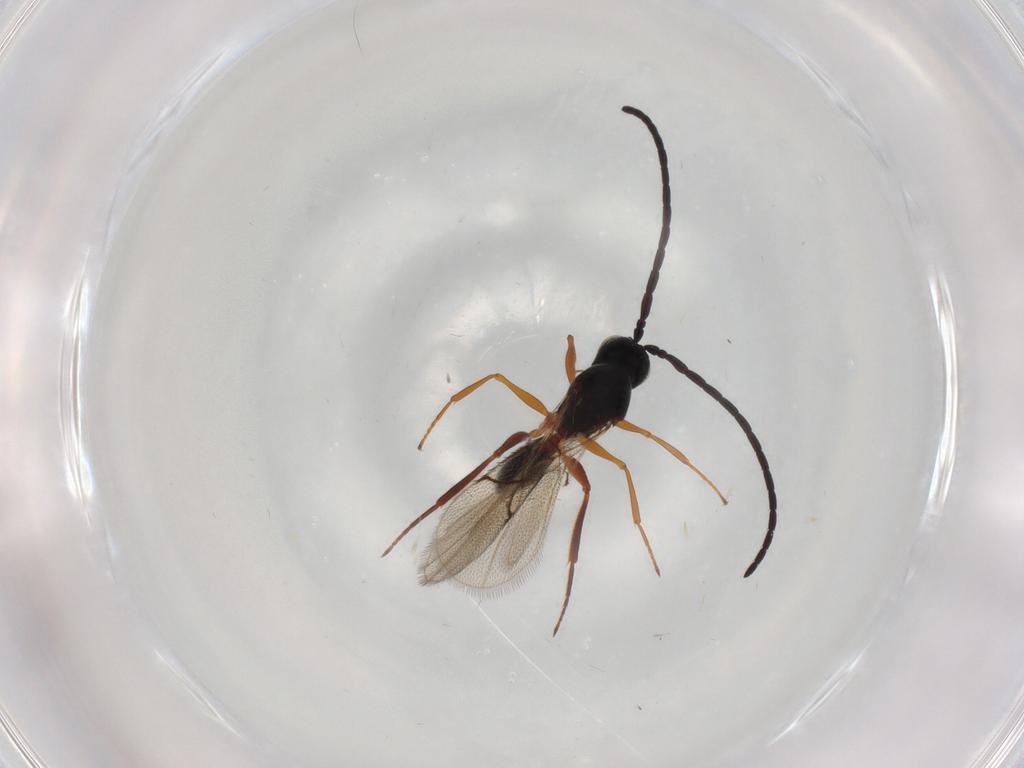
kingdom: Animalia
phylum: Arthropoda
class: Insecta
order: Hymenoptera
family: Figitidae
